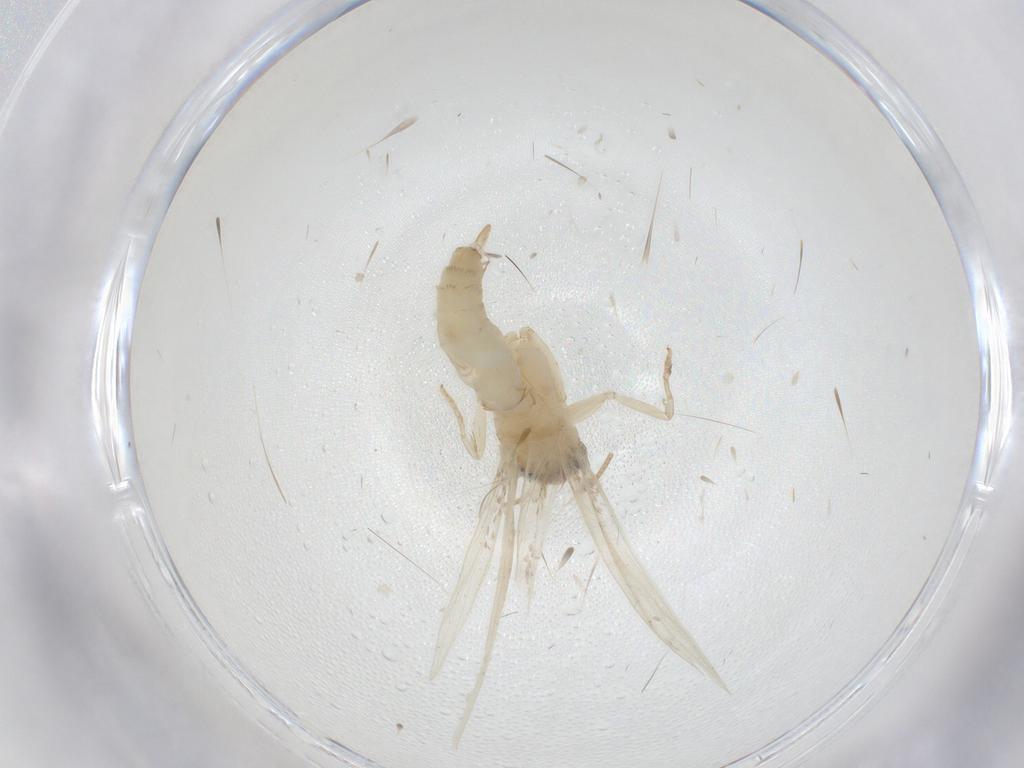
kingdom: Animalia
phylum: Arthropoda
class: Insecta
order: Lepidoptera
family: Tineidae
